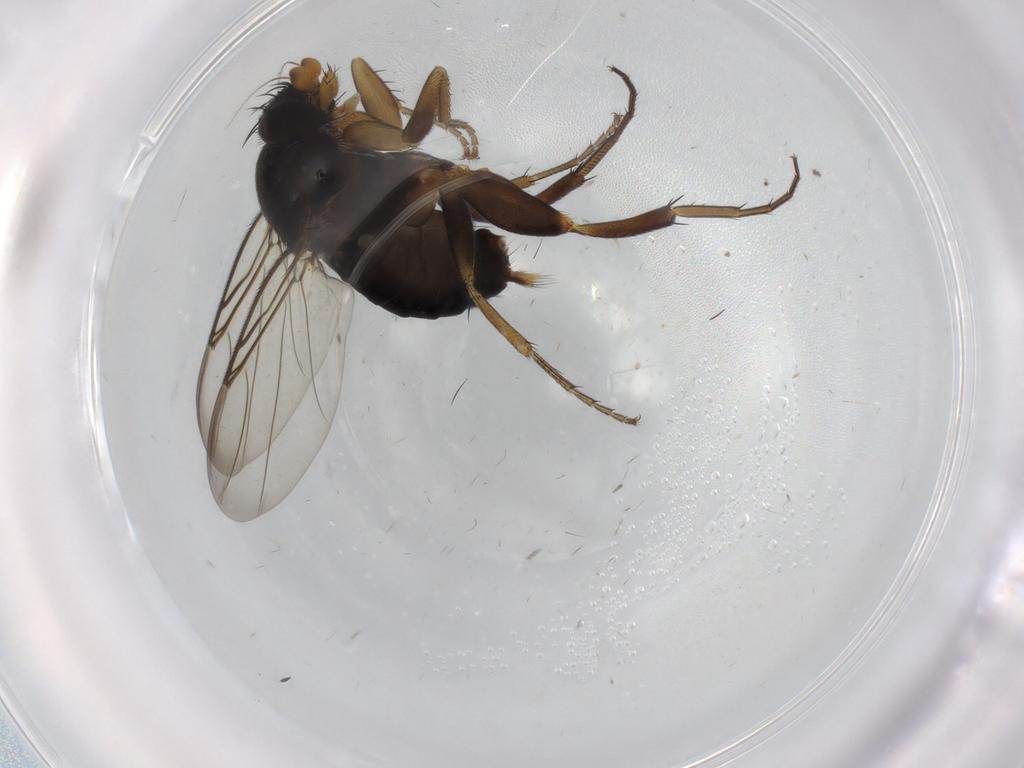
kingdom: Animalia
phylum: Arthropoda
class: Insecta
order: Diptera
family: Phoridae
